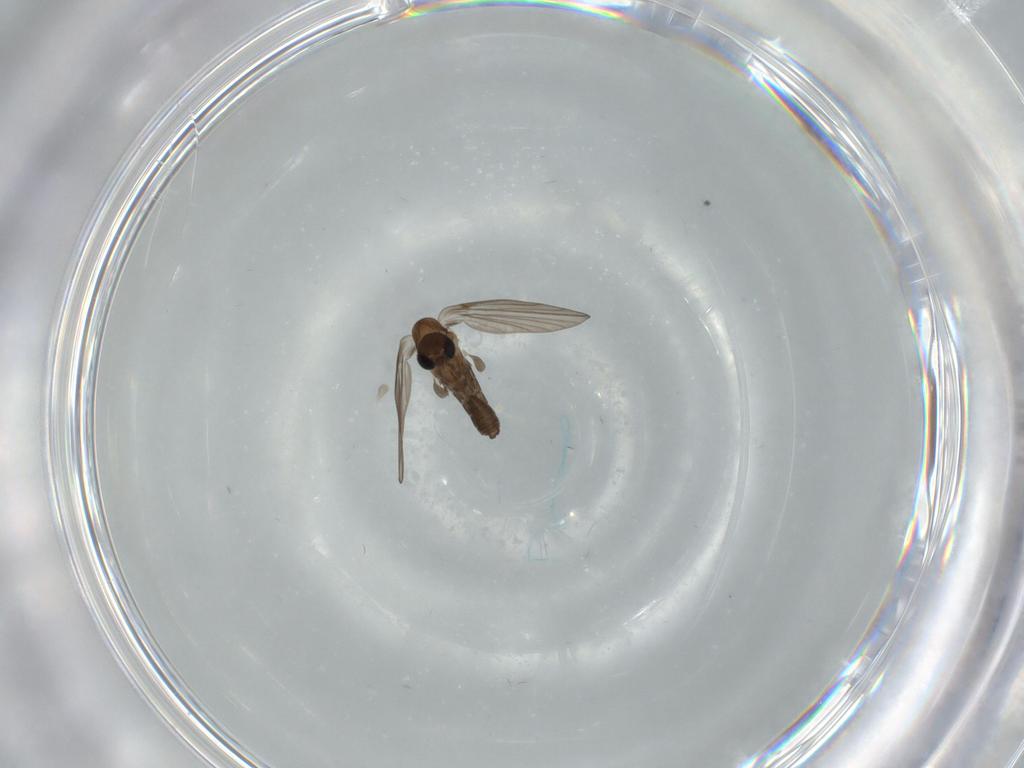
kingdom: Animalia
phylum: Arthropoda
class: Insecta
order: Diptera
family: Psychodidae
